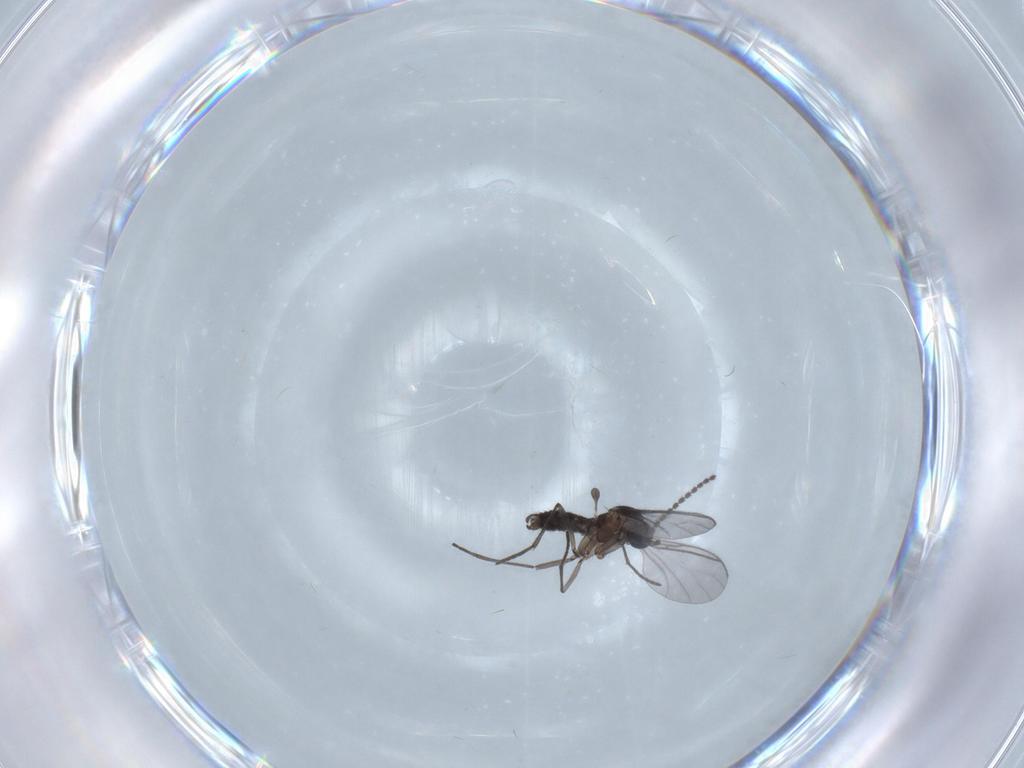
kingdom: Animalia
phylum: Arthropoda
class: Insecta
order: Diptera
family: Sciaridae
